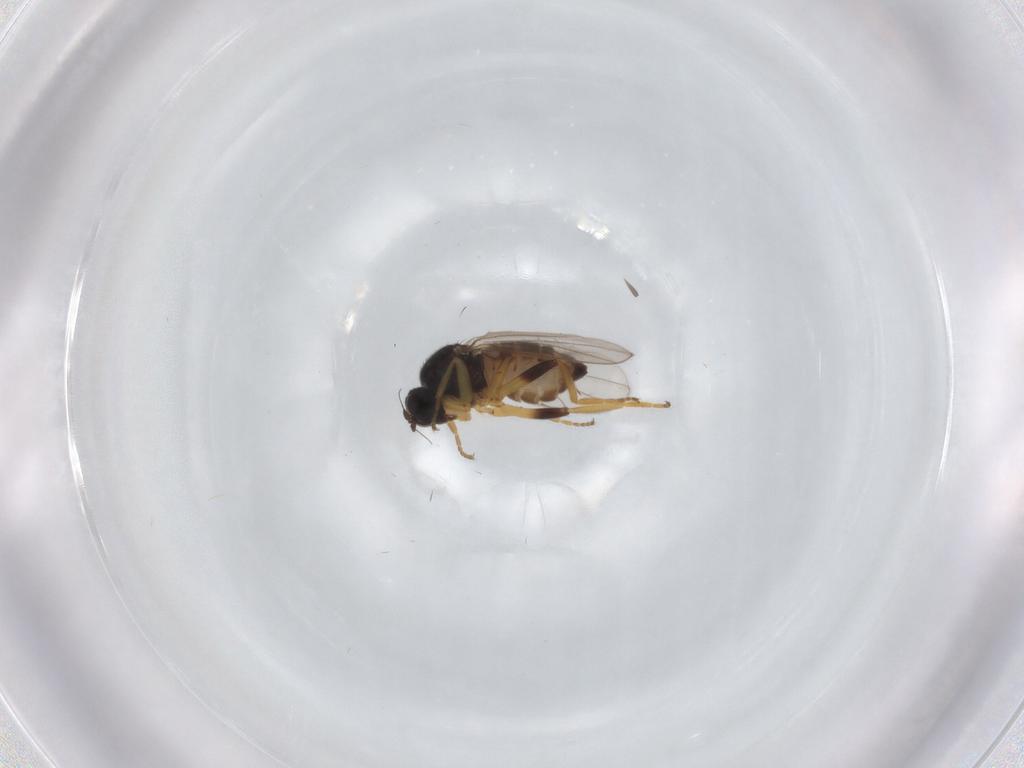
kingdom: Animalia
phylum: Arthropoda
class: Insecta
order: Diptera
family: Hybotidae
